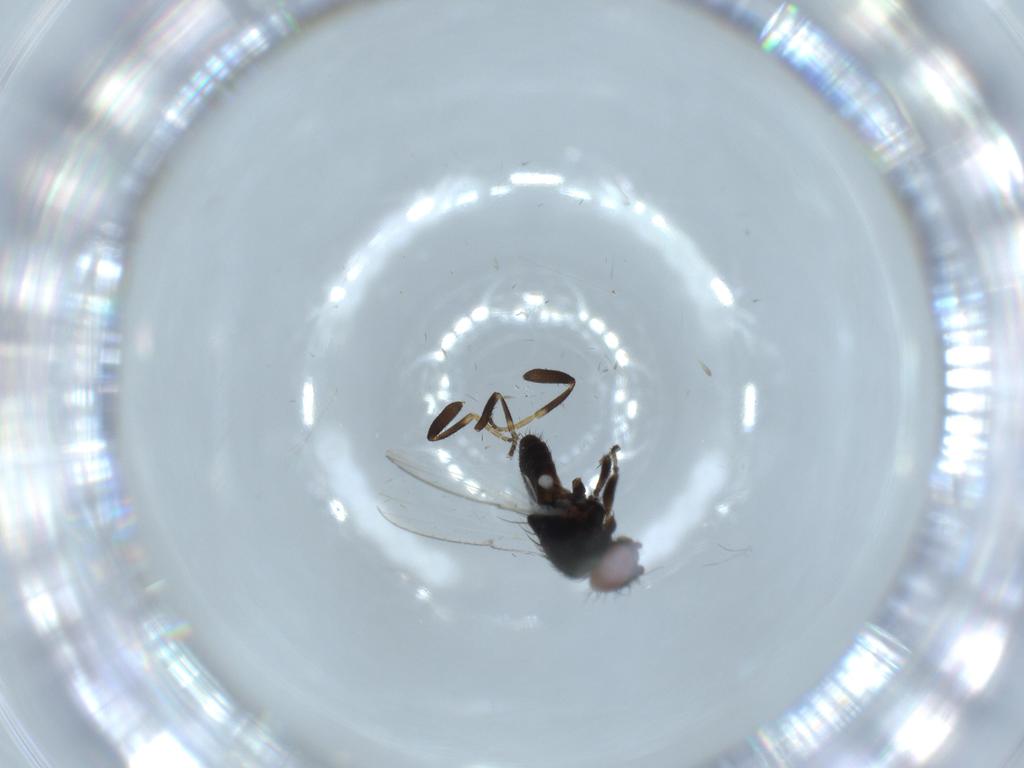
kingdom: Animalia
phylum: Arthropoda
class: Insecta
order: Diptera
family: Milichiidae
